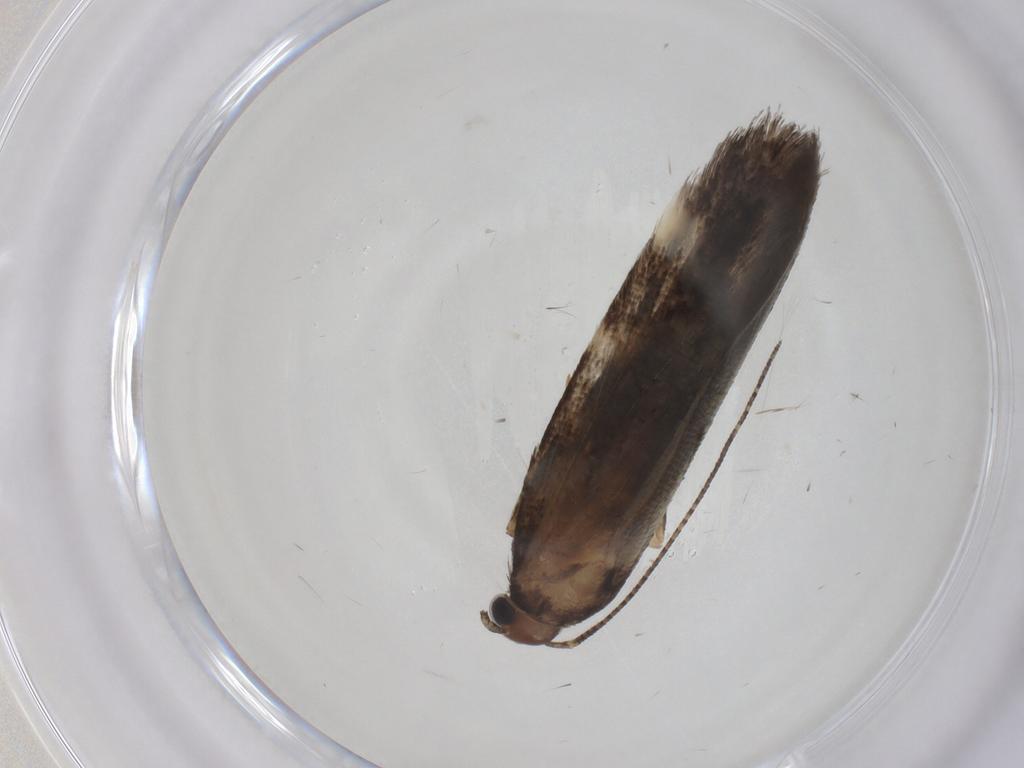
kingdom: Animalia
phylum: Arthropoda
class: Insecta
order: Lepidoptera
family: Gelechiidae
